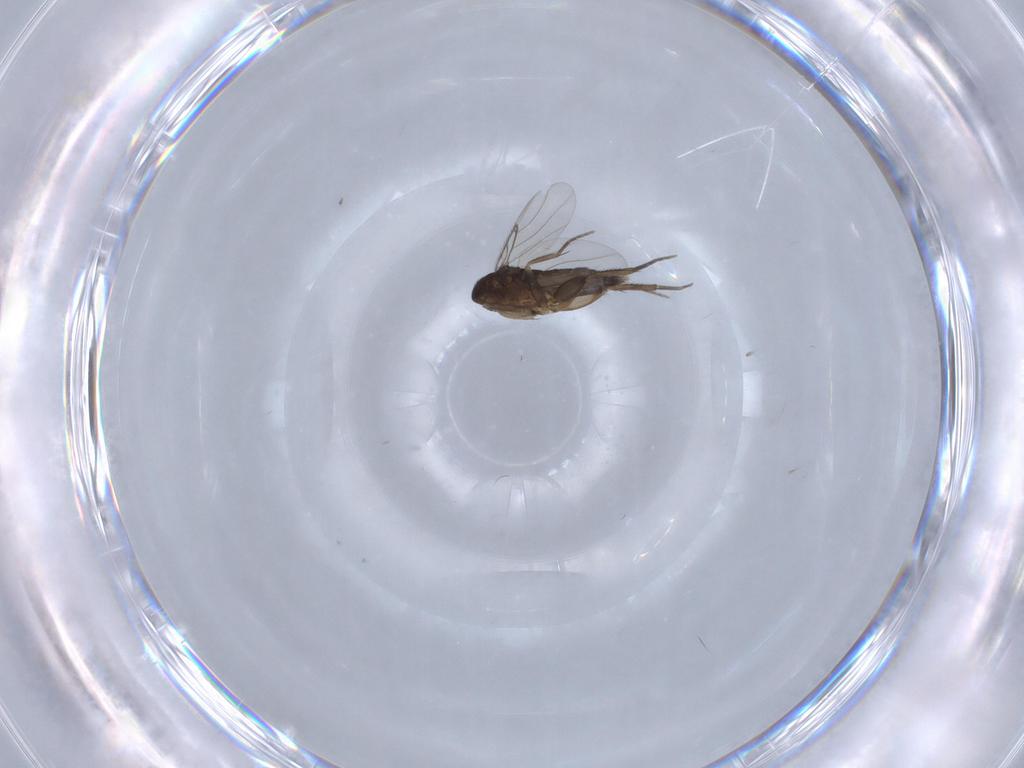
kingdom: Animalia
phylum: Arthropoda
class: Insecta
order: Diptera
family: Phoridae
